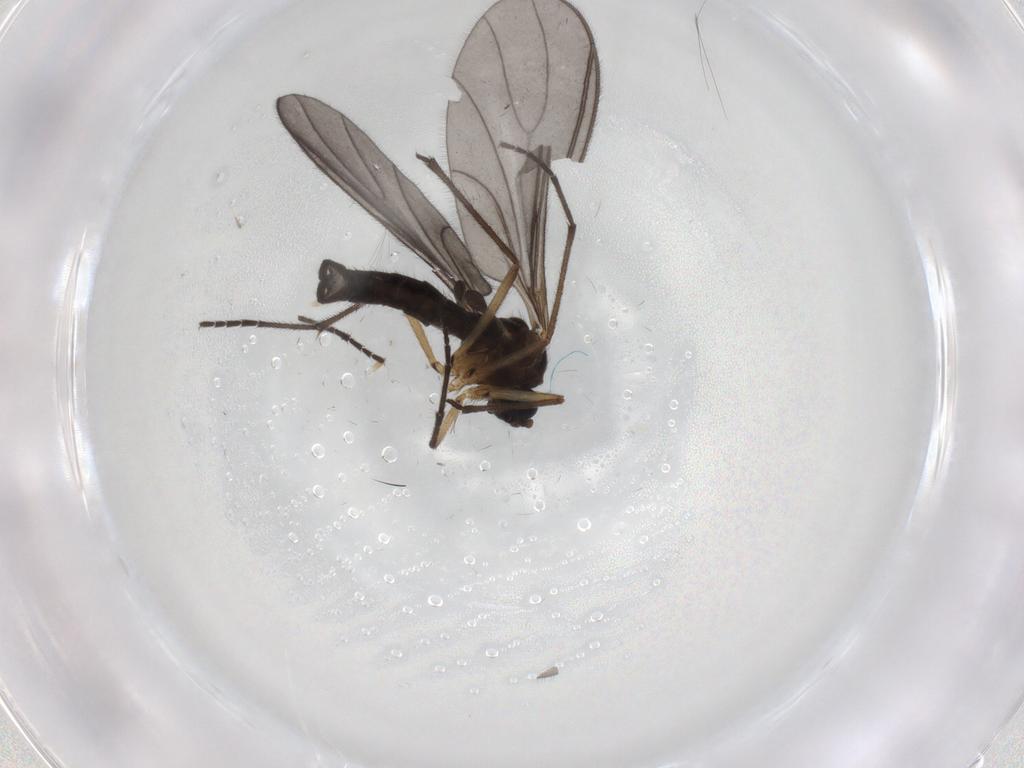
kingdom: Animalia
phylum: Arthropoda
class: Insecta
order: Diptera
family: Sciaridae
